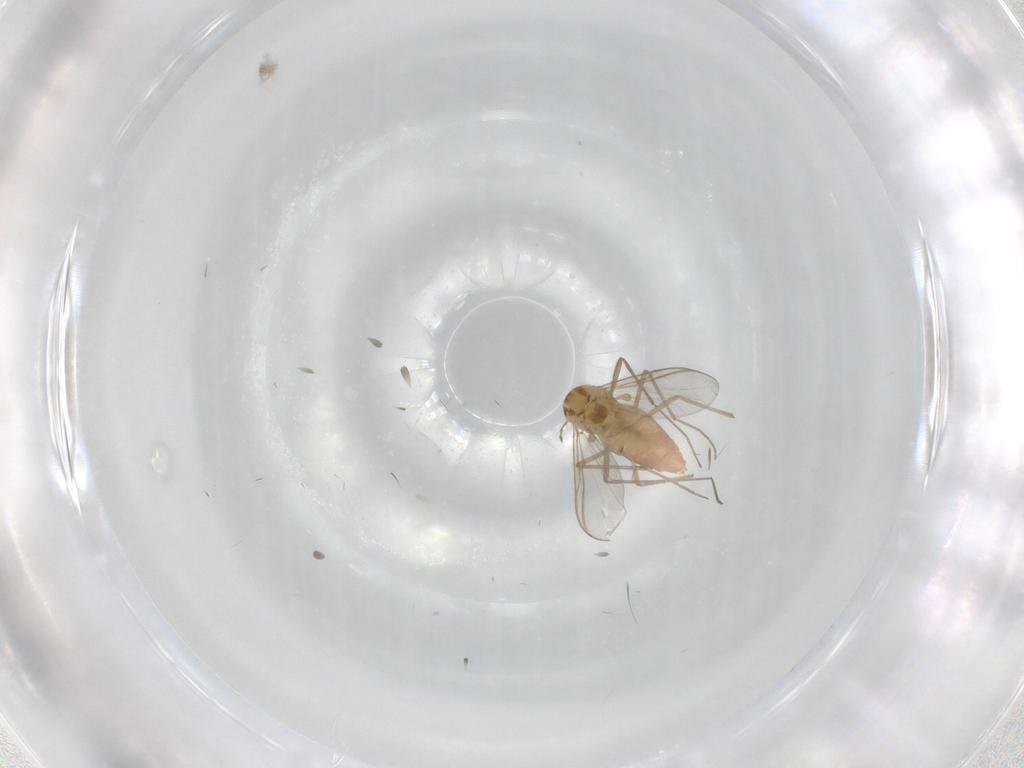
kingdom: Animalia
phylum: Arthropoda
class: Insecta
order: Diptera
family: Chironomidae
